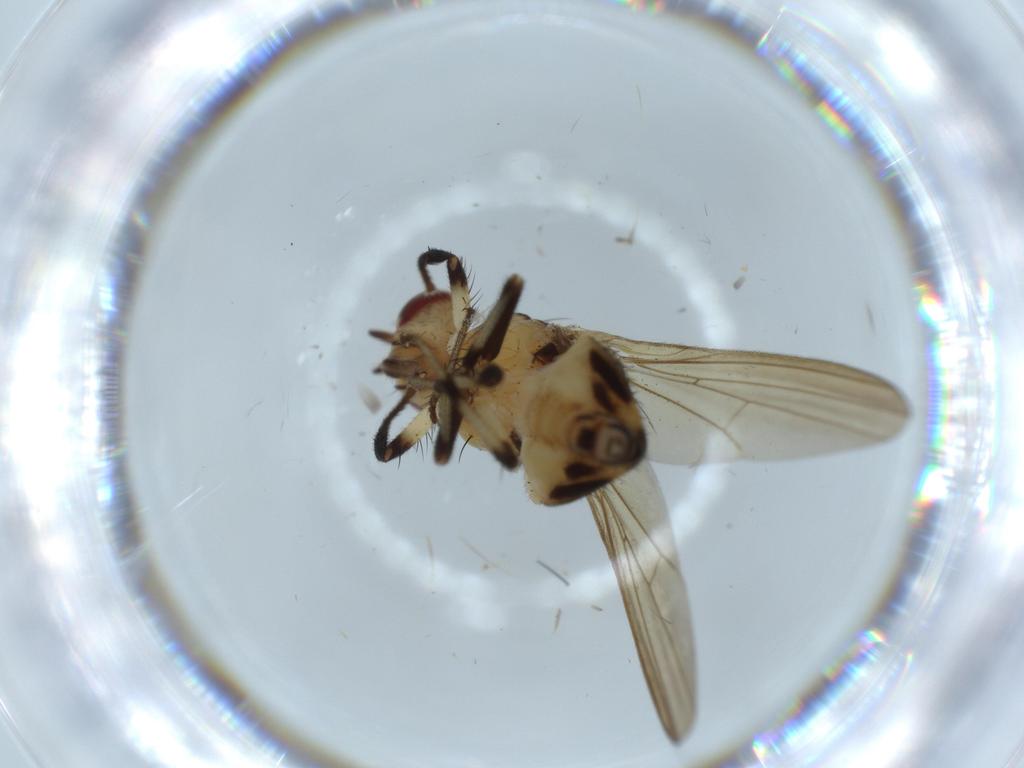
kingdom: Animalia
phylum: Arthropoda
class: Insecta
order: Diptera
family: Lauxaniidae
